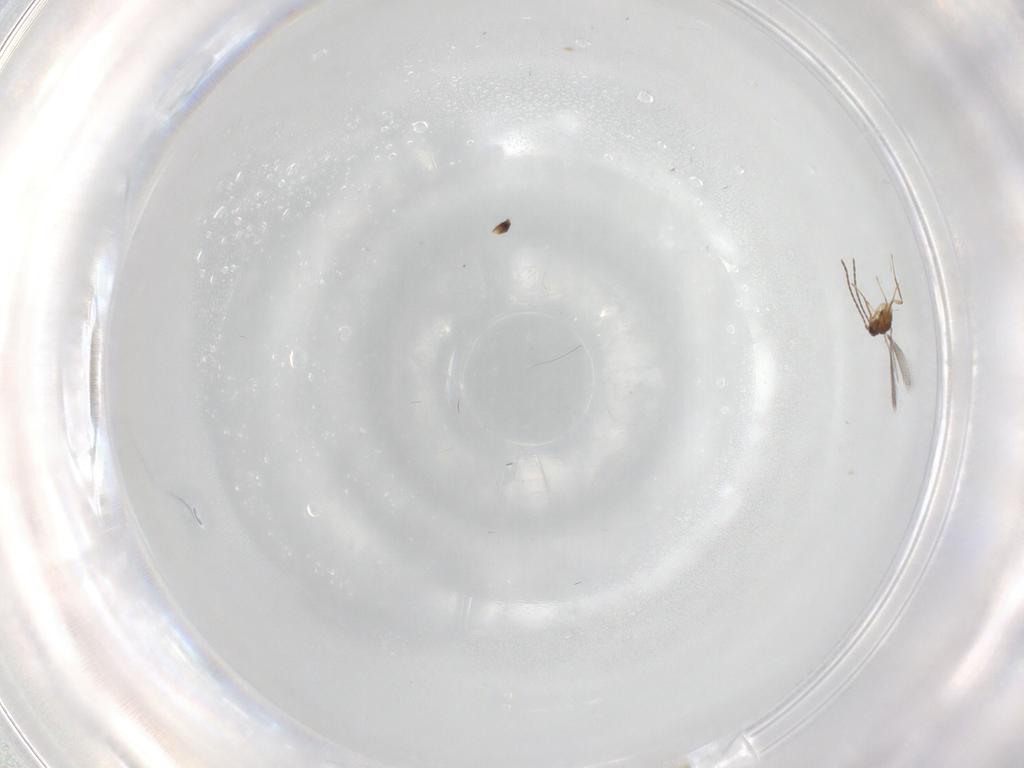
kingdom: Animalia
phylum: Arthropoda
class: Insecta
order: Hymenoptera
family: Mymaridae
